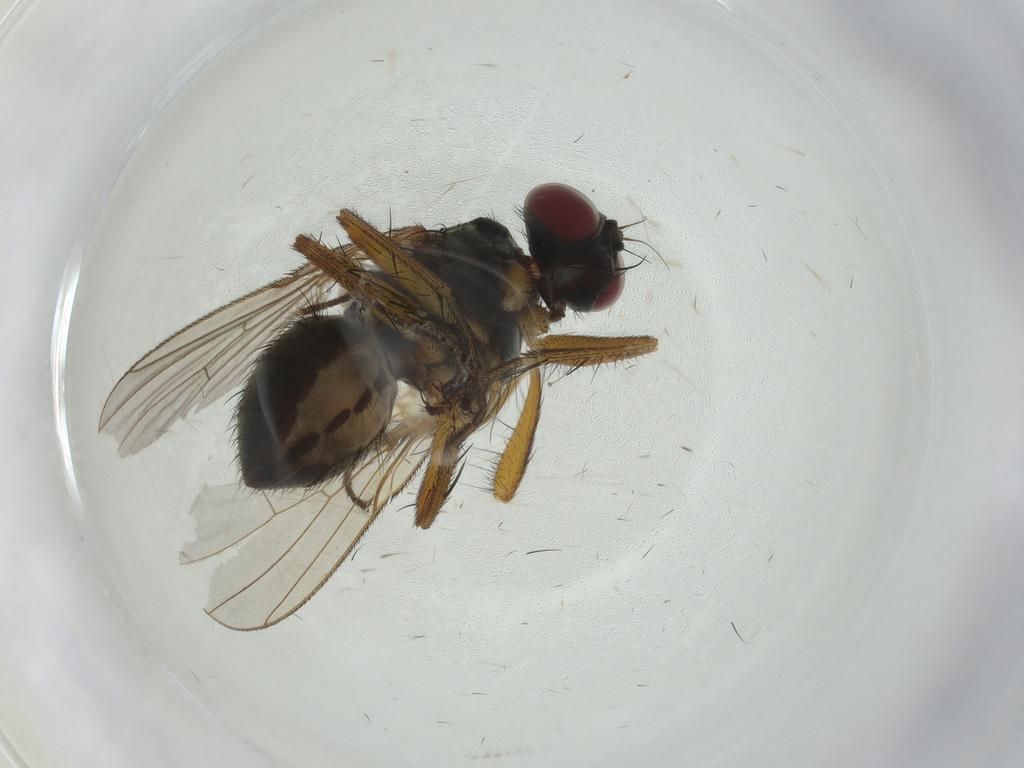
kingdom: Animalia
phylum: Arthropoda
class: Insecta
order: Diptera
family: Muscidae
